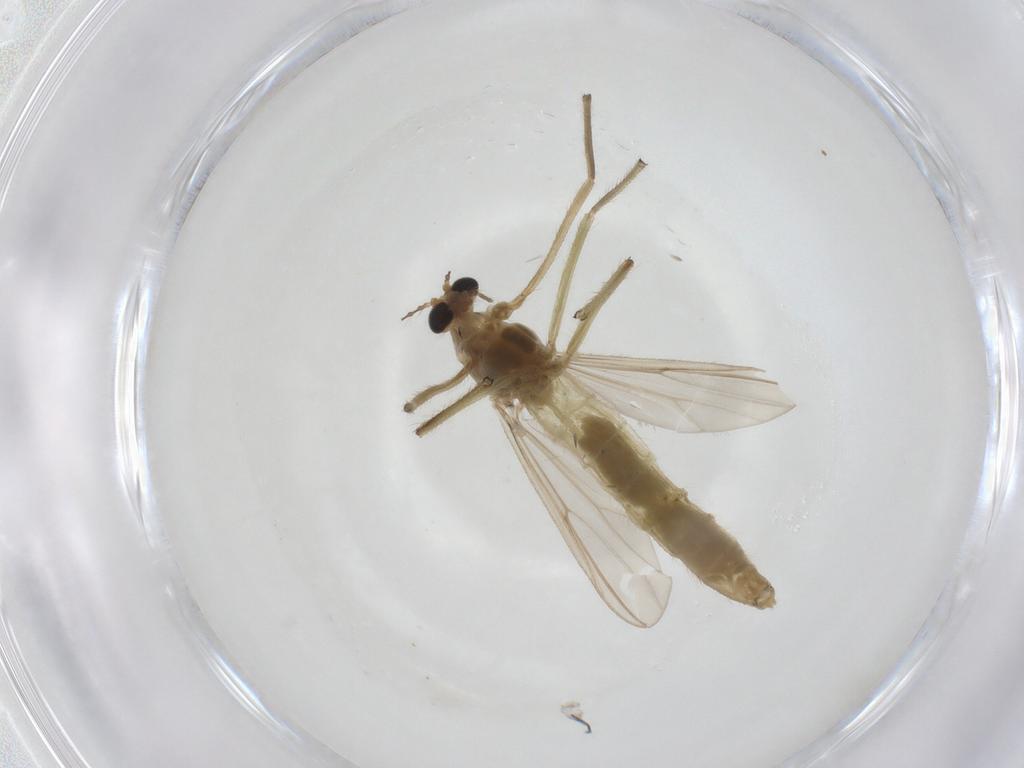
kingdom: Animalia
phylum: Arthropoda
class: Insecta
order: Diptera
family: Chironomidae
